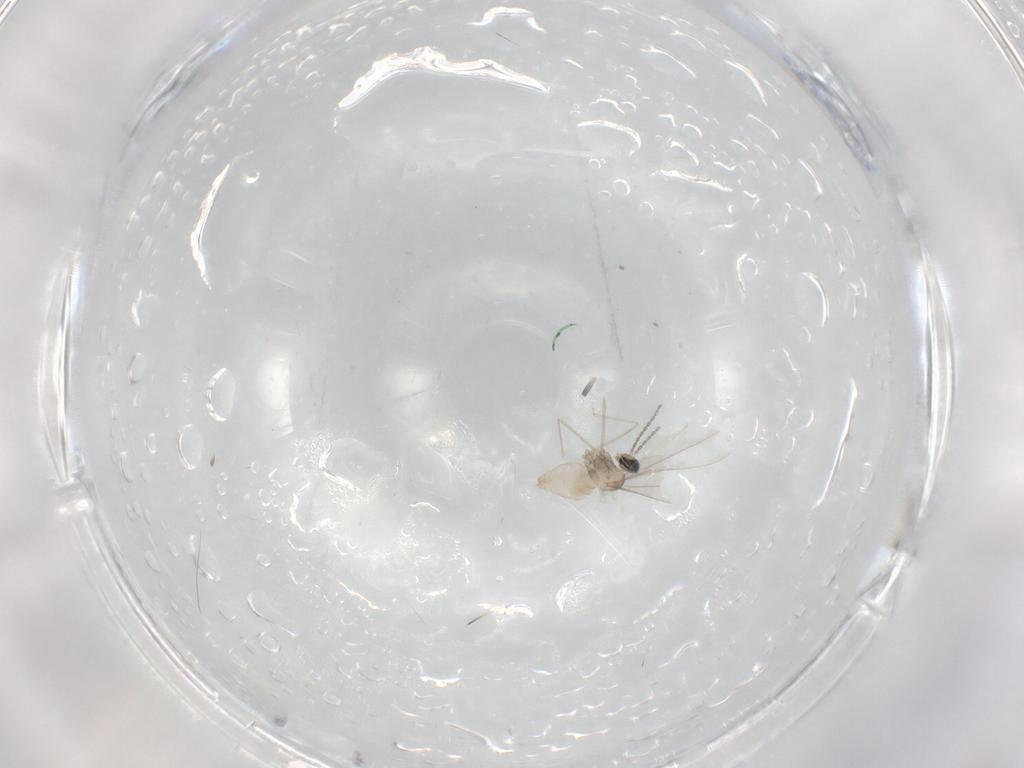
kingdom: Animalia
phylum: Arthropoda
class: Insecta
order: Diptera
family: Cecidomyiidae
